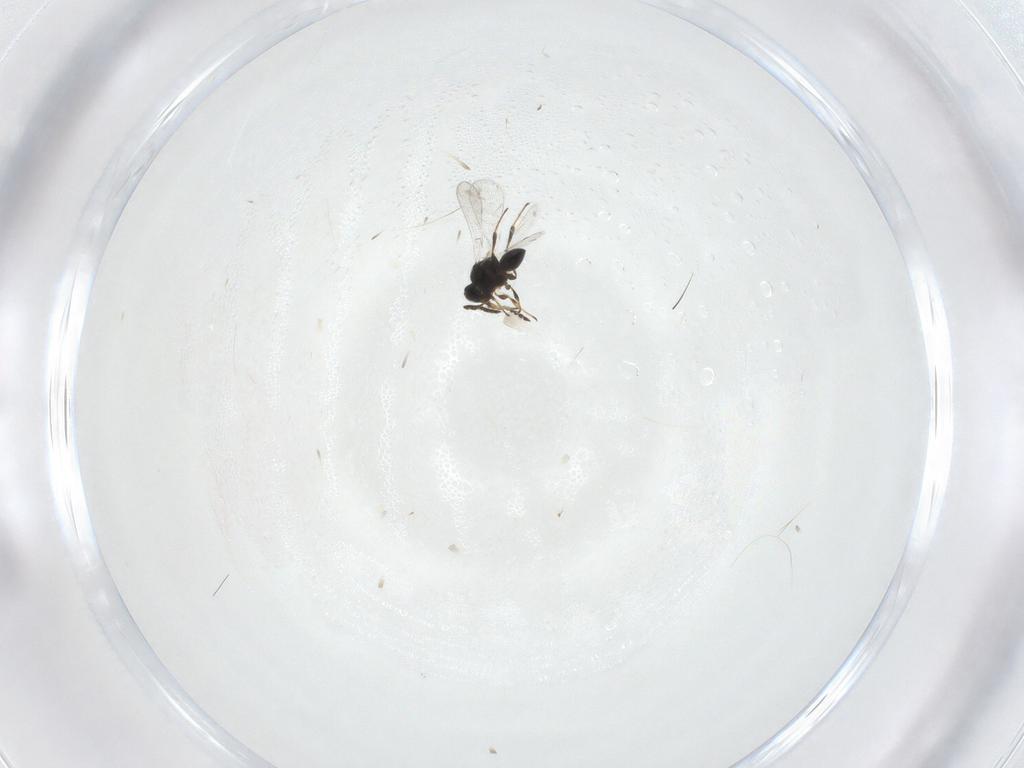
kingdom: Animalia
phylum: Arthropoda
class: Insecta
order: Hymenoptera
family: Platygastridae
